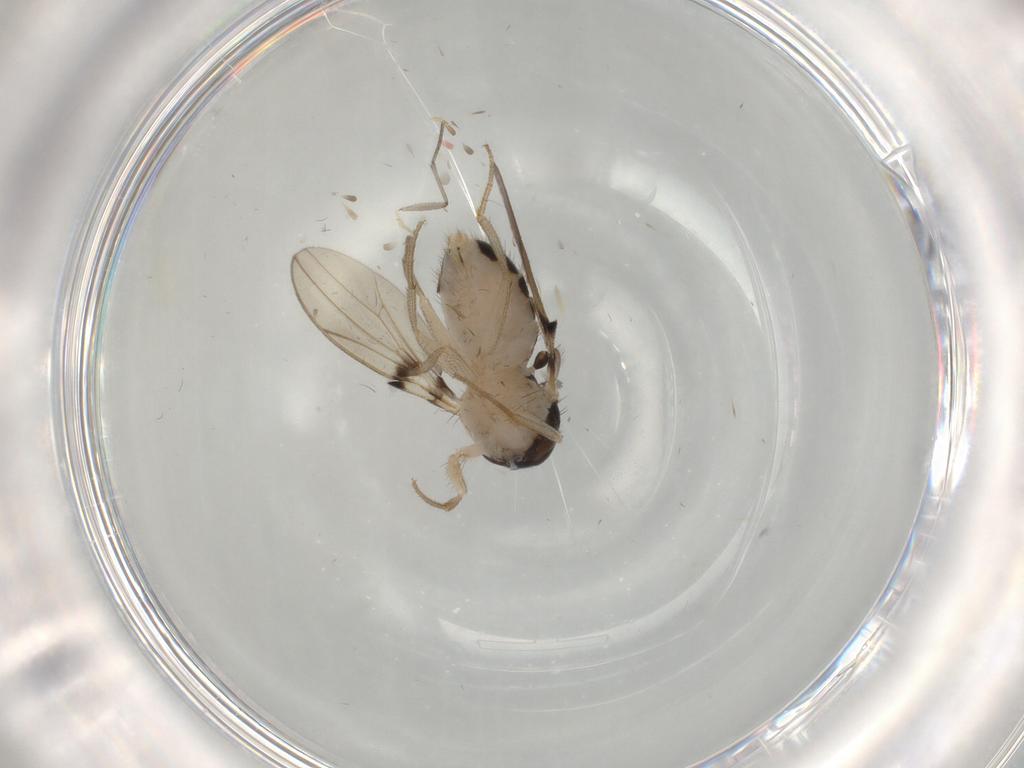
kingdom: Animalia
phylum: Arthropoda
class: Insecta
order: Diptera
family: Drosophilidae
